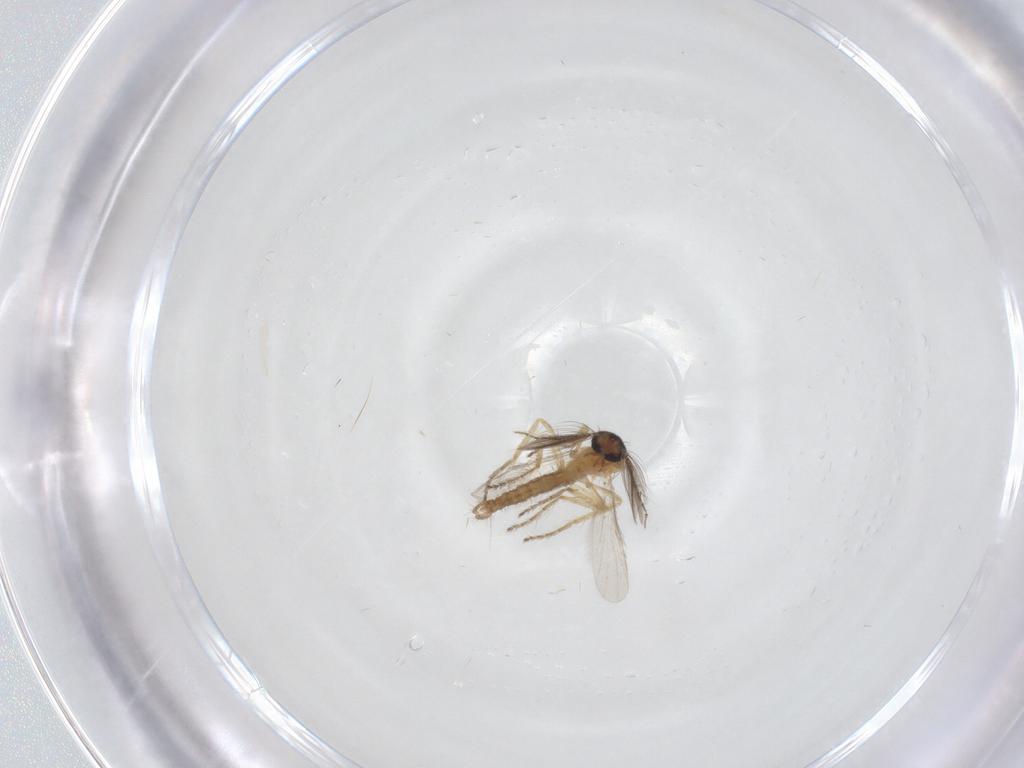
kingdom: Animalia
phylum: Arthropoda
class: Insecta
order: Diptera
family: Ceratopogonidae
